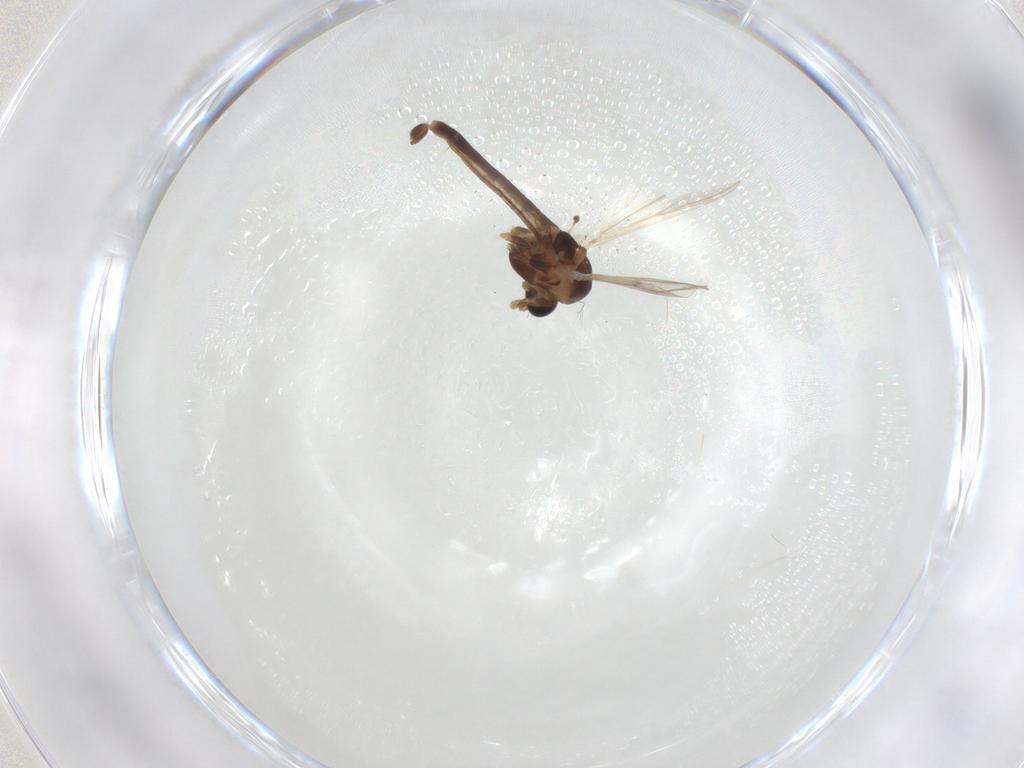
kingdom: Animalia
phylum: Arthropoda
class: Insecta
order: Diptera
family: Chironomidae
